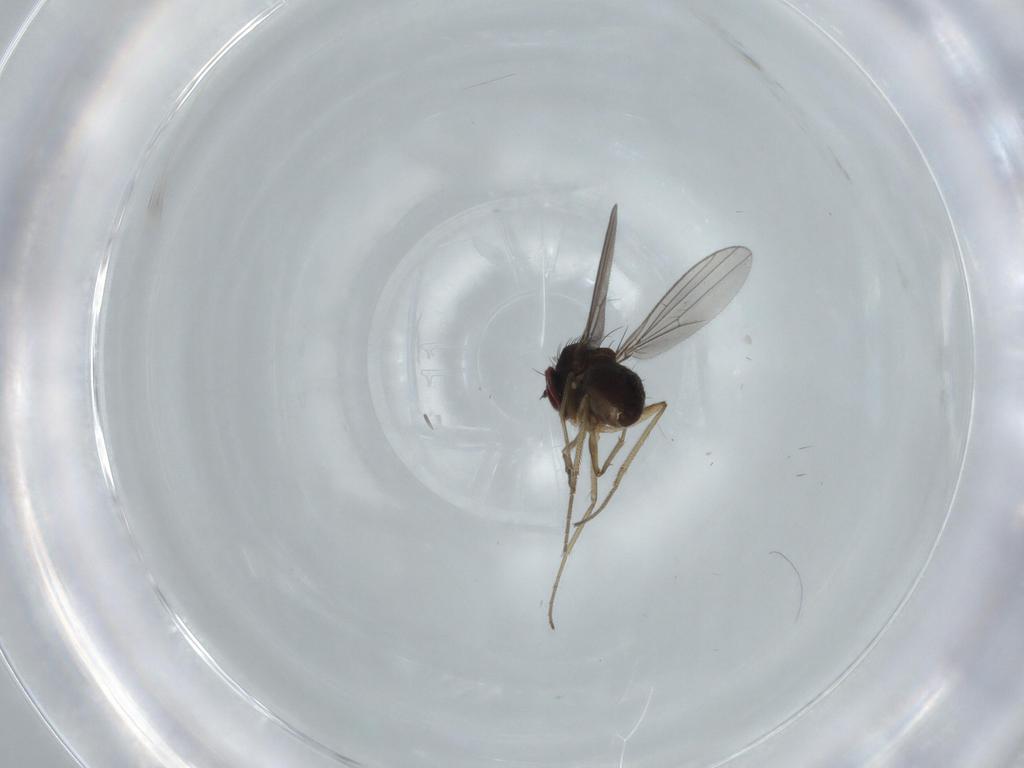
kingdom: Animalia
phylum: Arthropoda
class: Insecta
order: Diptera
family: Dolichopodidae
